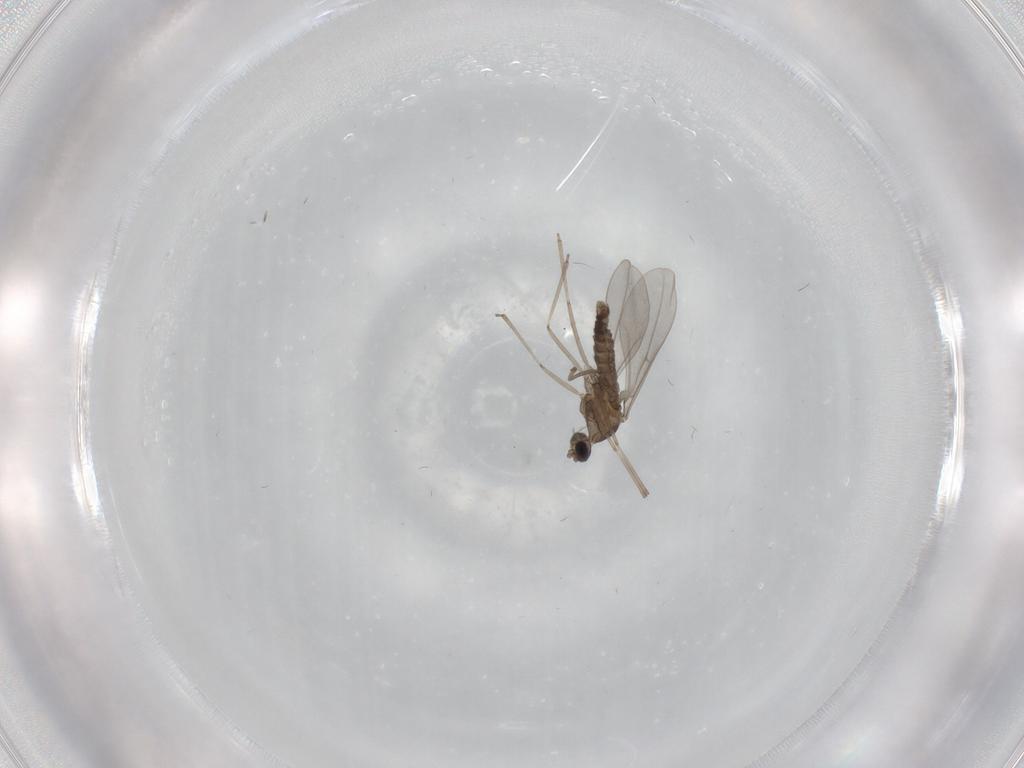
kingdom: Animalia
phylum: Arthropoda
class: Insecta
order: Diptera
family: Cecidomyiidae
